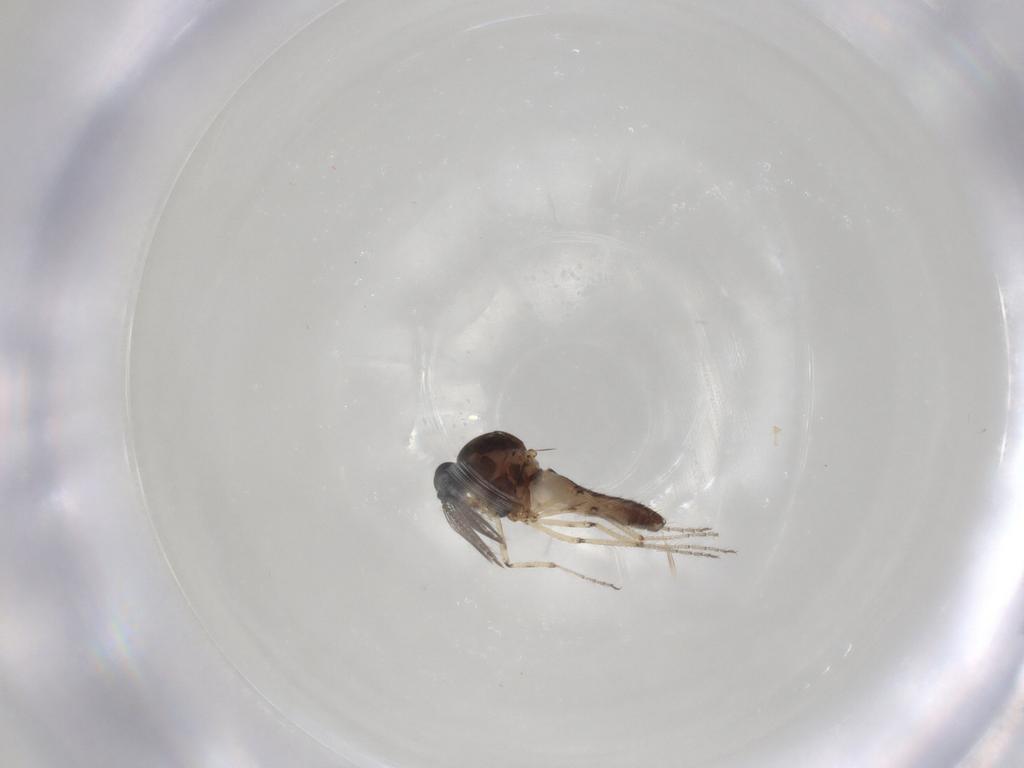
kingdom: Animalia
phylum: Arthropoda
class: Insecta
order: Diptera
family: Ceratopogonidae
